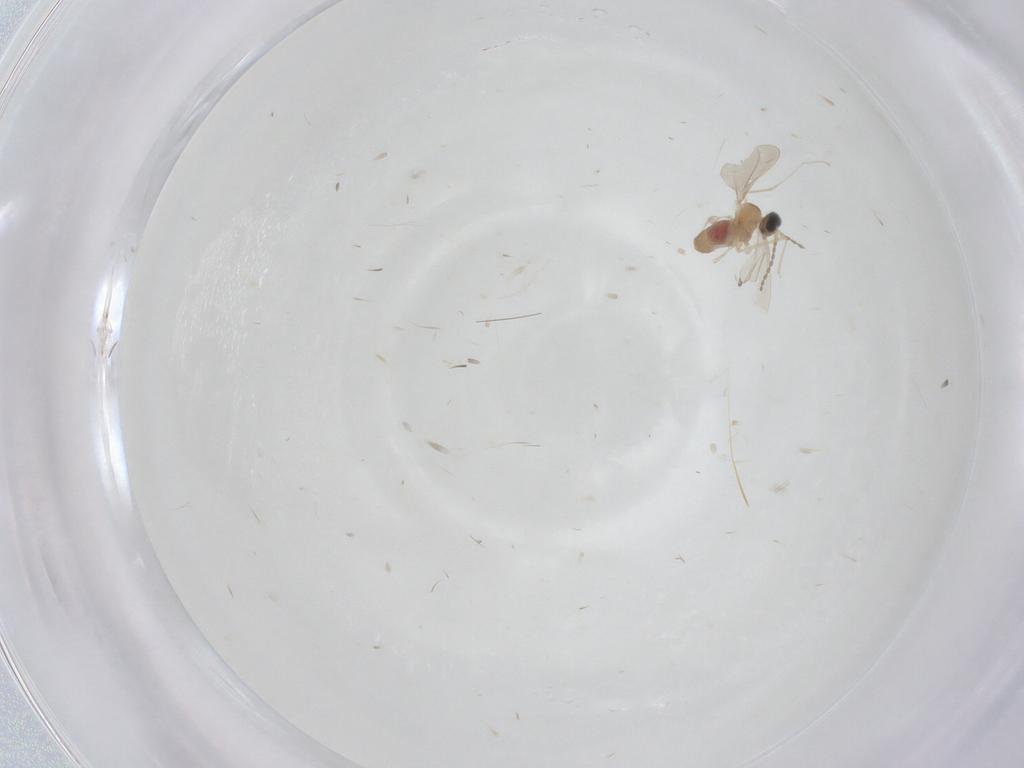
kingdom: Animalia
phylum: Arthropoda
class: Insecta
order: Diptera
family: Cecidomyiidae
